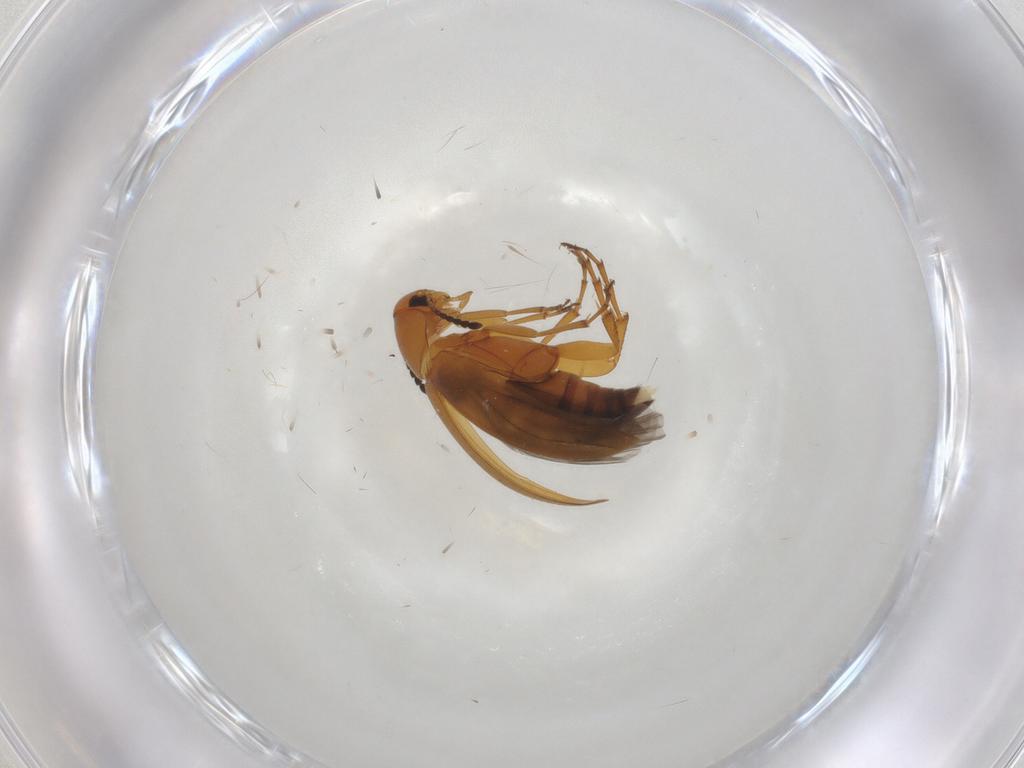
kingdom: Animalia
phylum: Arthropoda
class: Insecta
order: Coleoptera
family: Scraptiidae
